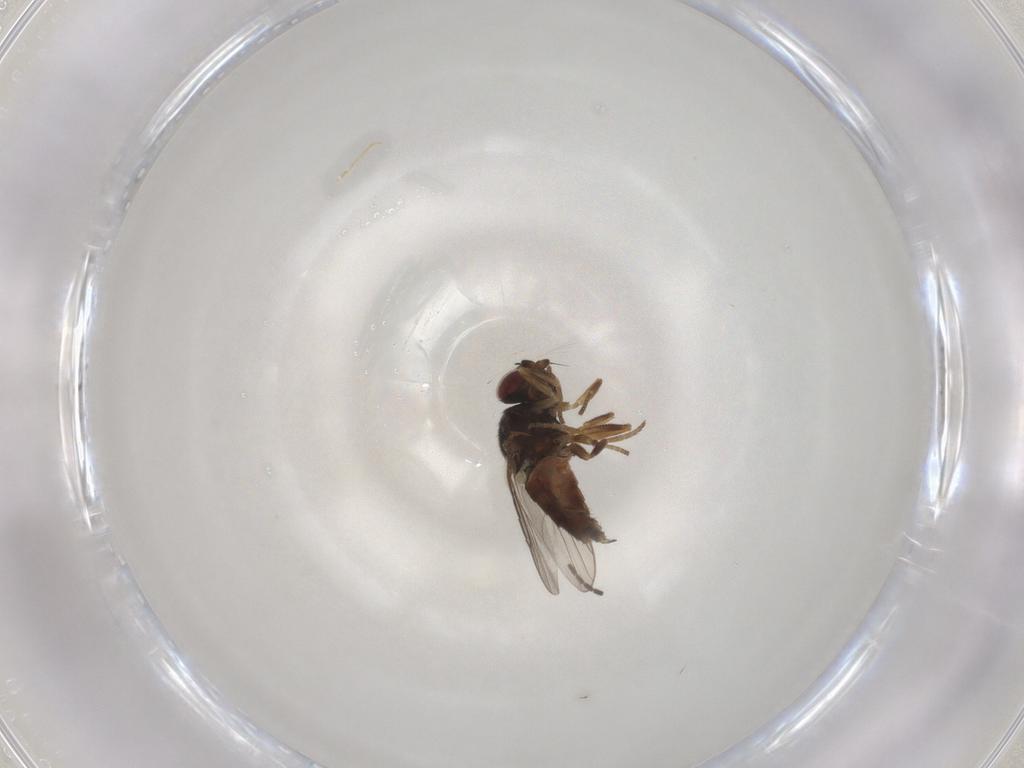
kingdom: Animalia
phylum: Arthropoda
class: Insecta
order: Diptera
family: Chloropidae
